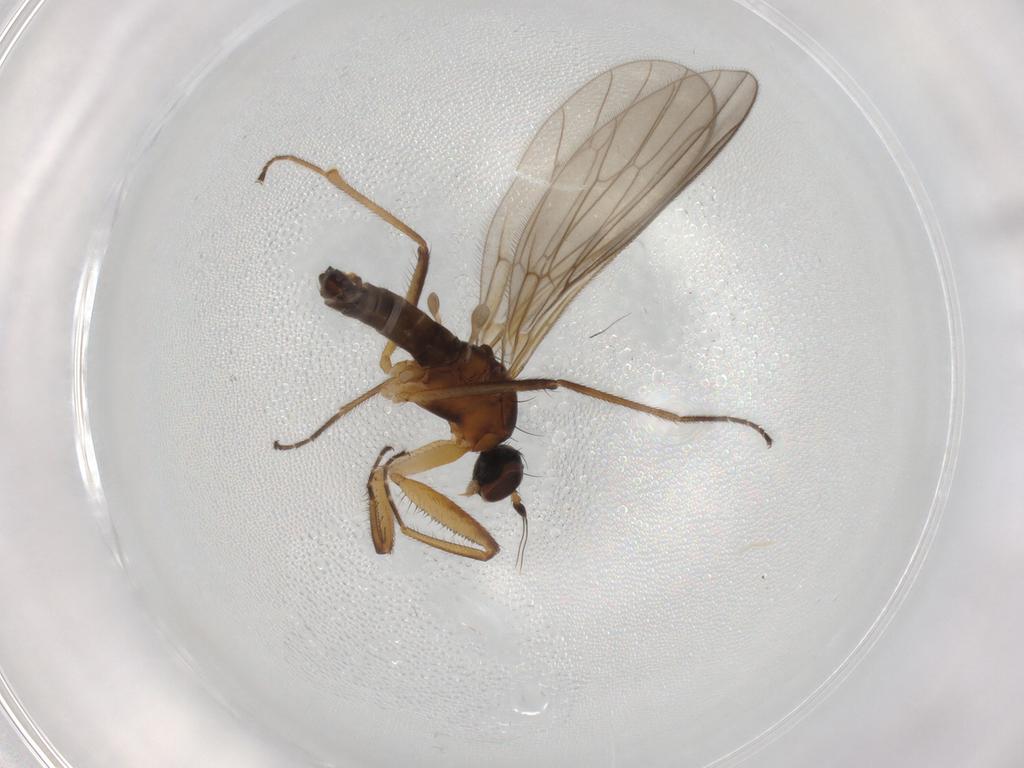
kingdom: Animalia
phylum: Arthropoda
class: Insecta
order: Diptera
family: Empididae
